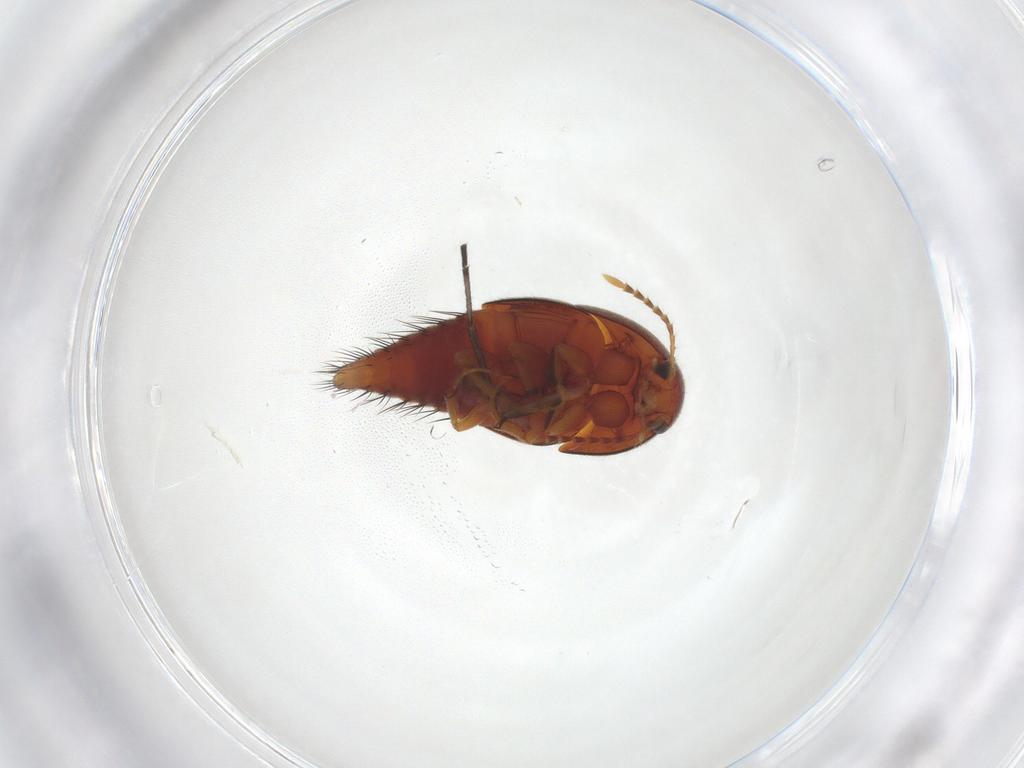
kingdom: Animalia
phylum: Arthropoda
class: Insecta
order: Coleoptera
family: Staphylinidae
